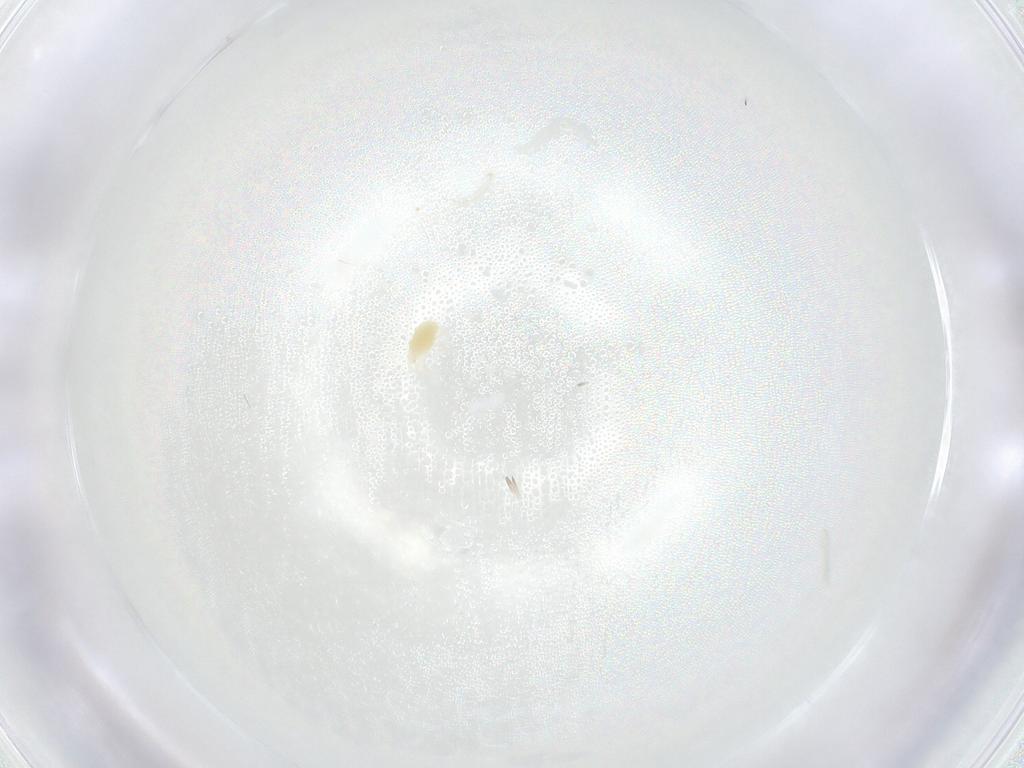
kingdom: Animalia
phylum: Arthropoda
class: Arachnida
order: Trombidiformes
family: Tetranychidae
